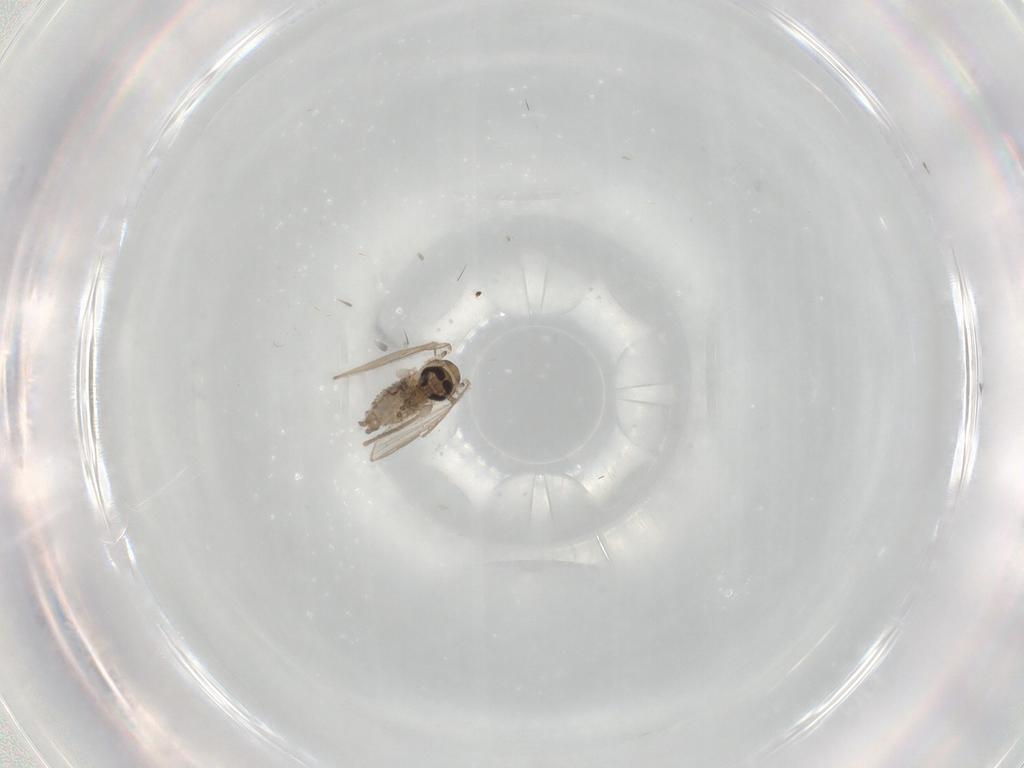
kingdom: Animalia
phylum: Arthropoda
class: Insecta
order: Diptera
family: Psychodidae
